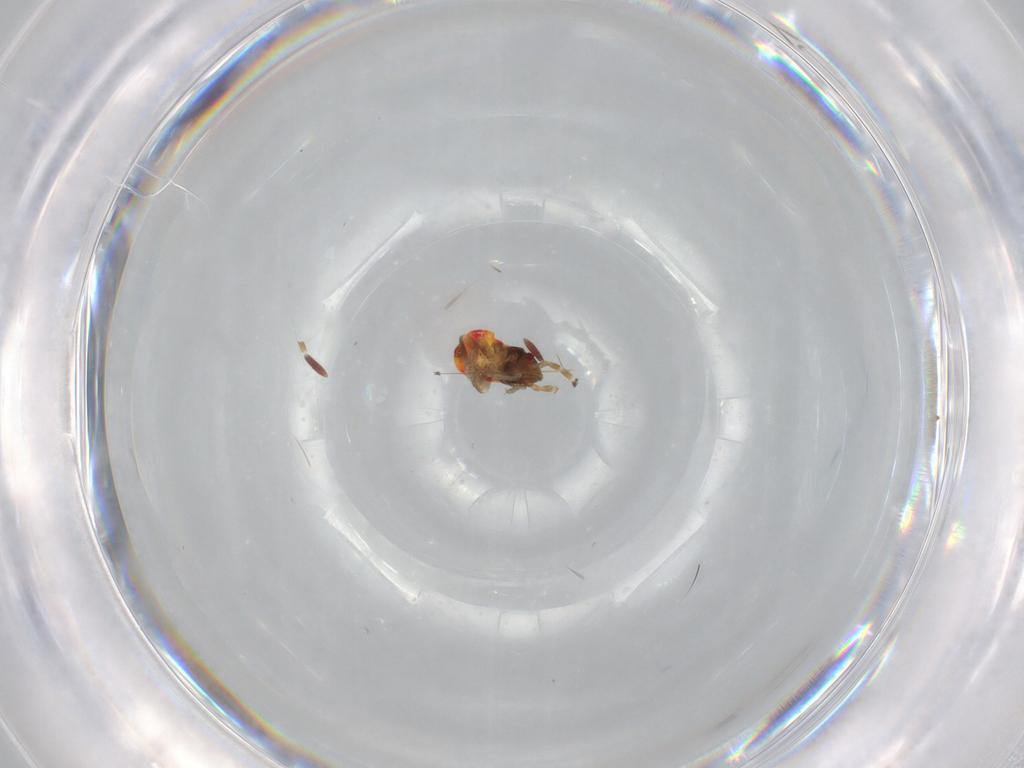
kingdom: Animalia
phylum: Arthropoda
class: Insecta
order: Hemiptera
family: Rhyparochromidae
